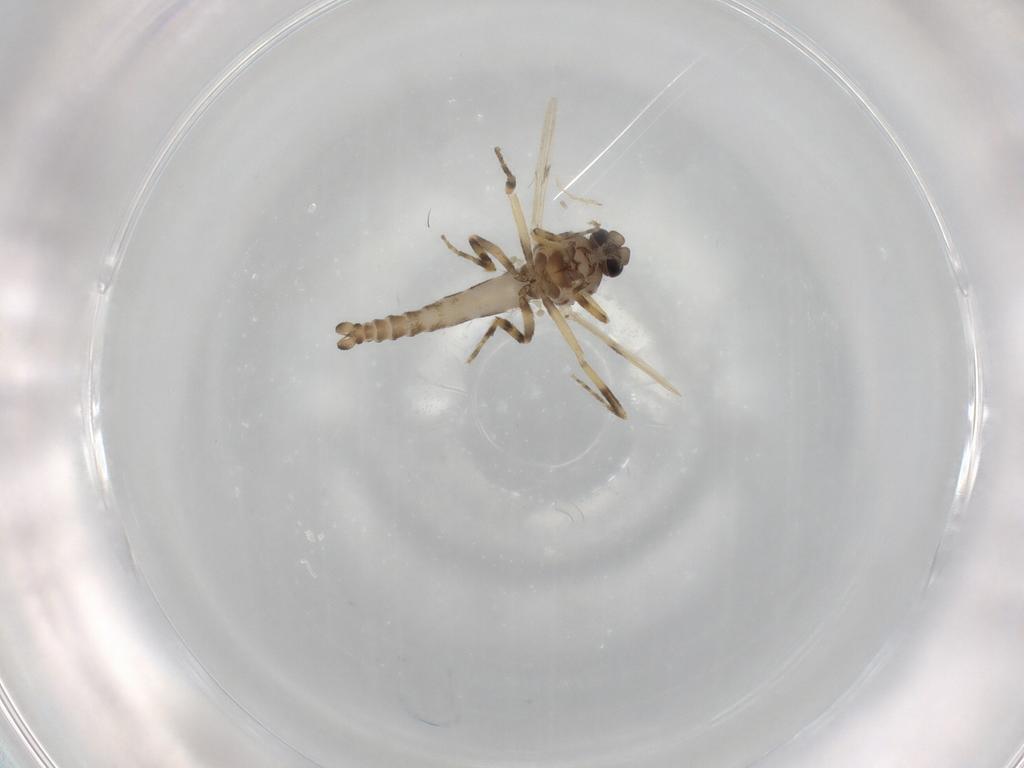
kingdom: Animalia
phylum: Arthropoda
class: Insecta
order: Diptera
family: Ceratopogonidae
